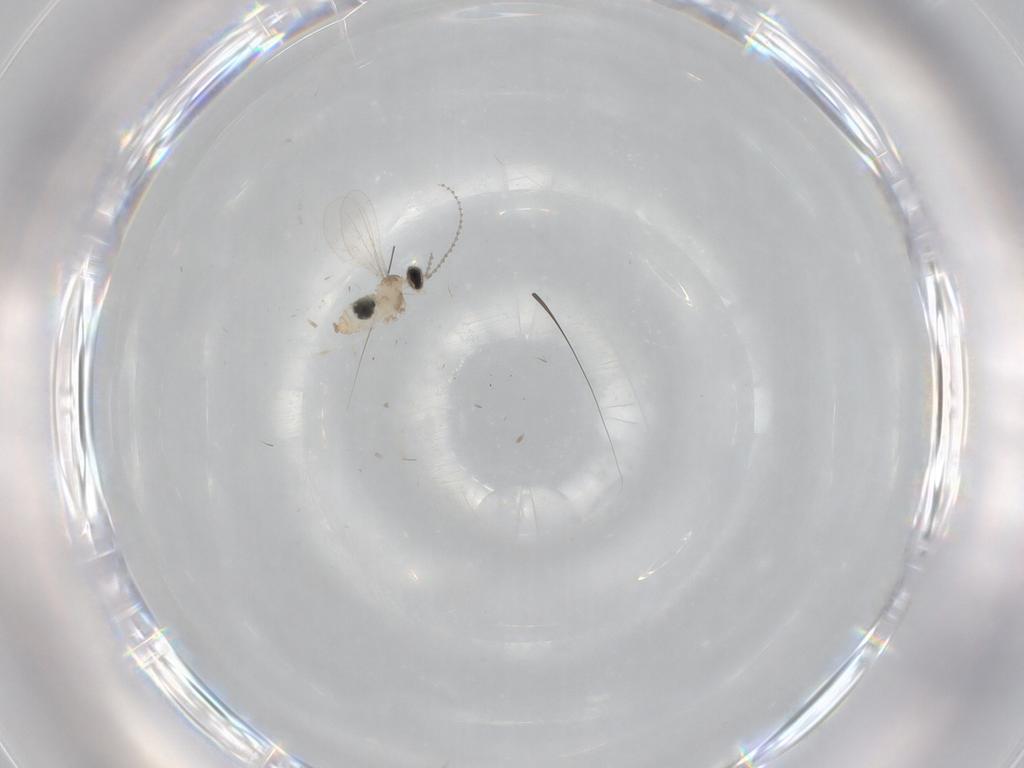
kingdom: Animalia
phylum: Arthropoda
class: Insecta
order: Diptera
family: Cecidomyiidae
